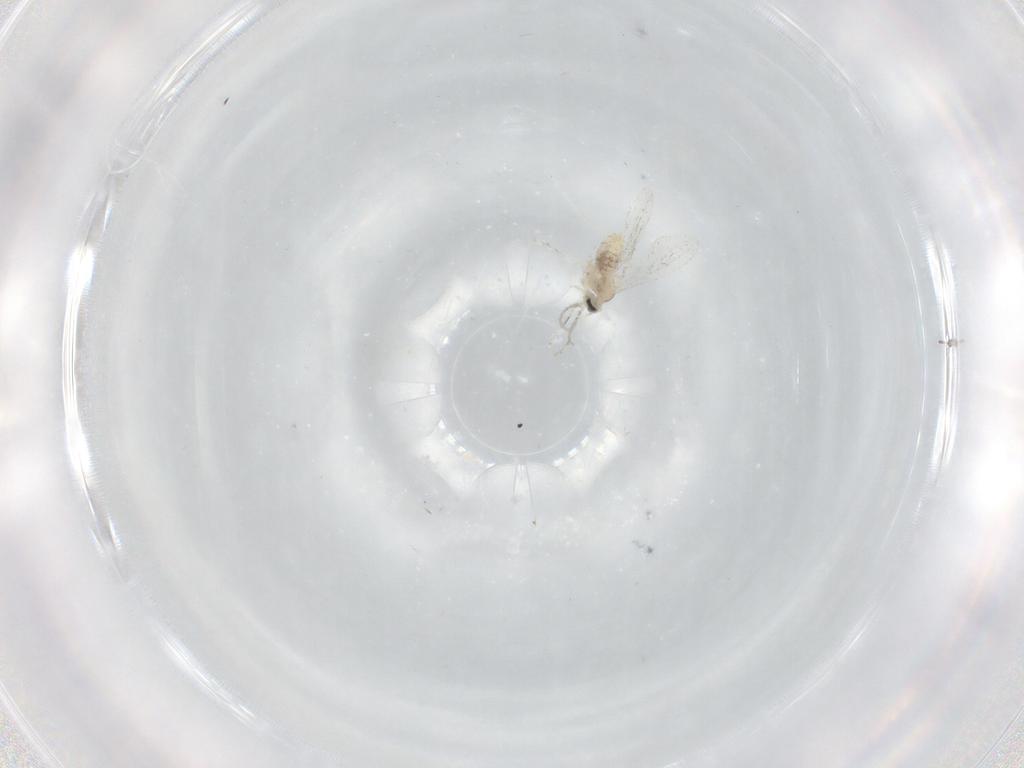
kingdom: Animalia
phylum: Arthropoda
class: Insecta
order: Diptera
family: Cecidomyiidae
